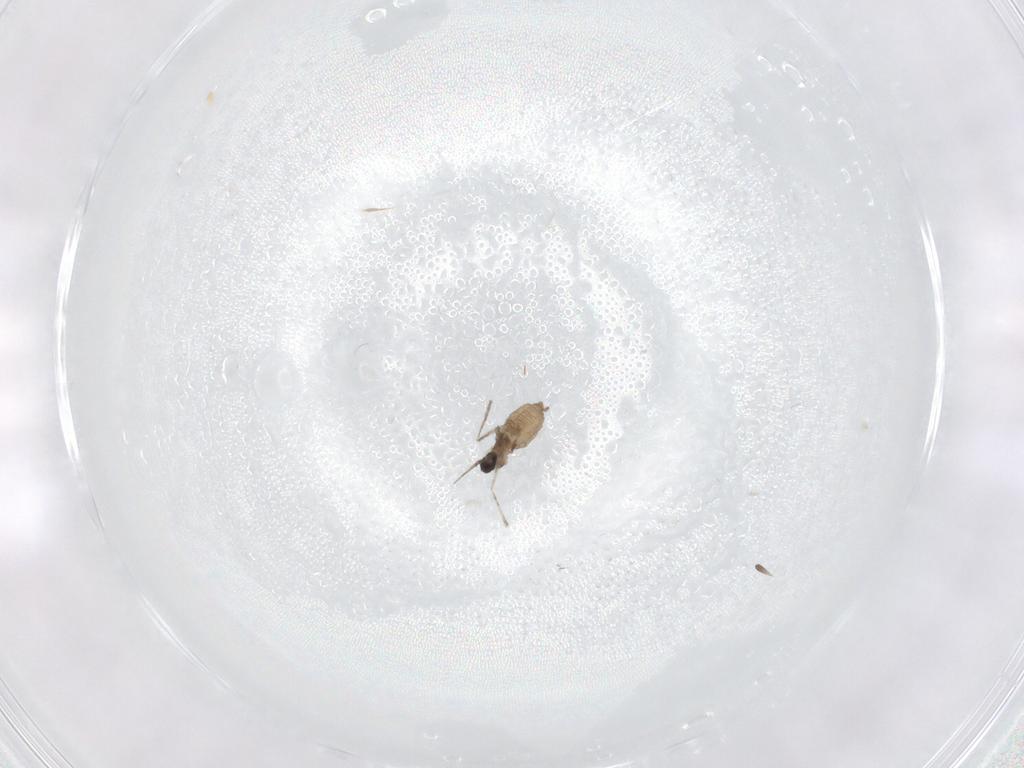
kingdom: Animalia
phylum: Arthropoda
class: Insecta
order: Diptera
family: Cecidomyiidae
